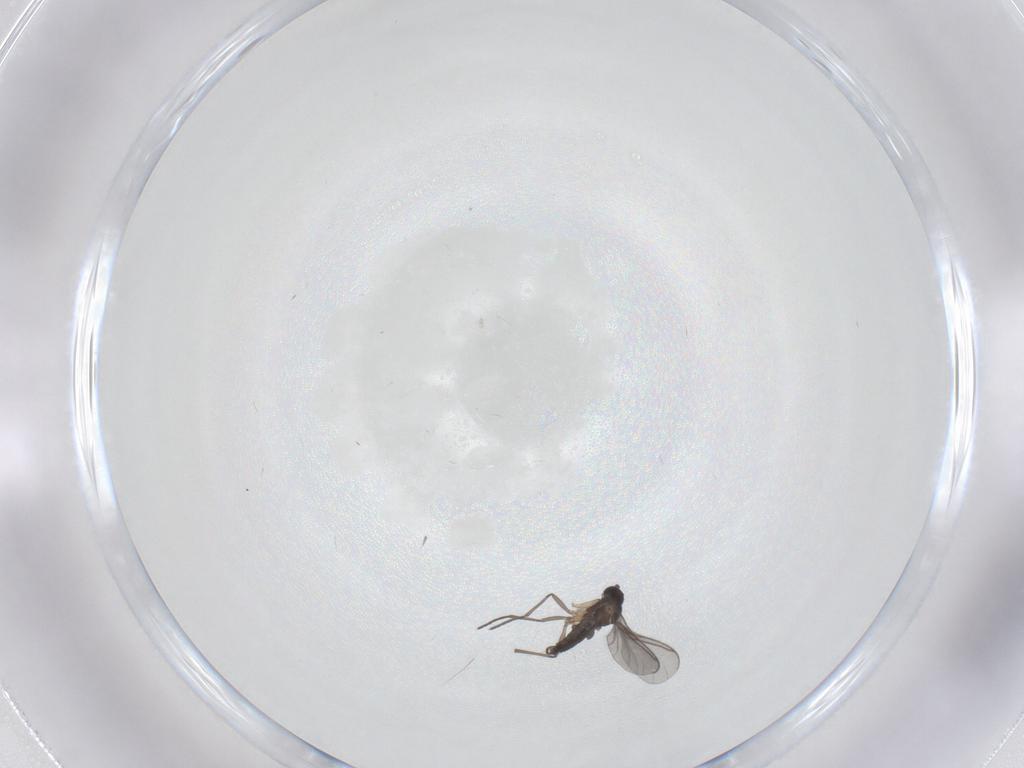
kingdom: Animalia
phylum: Arthropoda
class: Insecta
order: Diptera
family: Sciaridae
